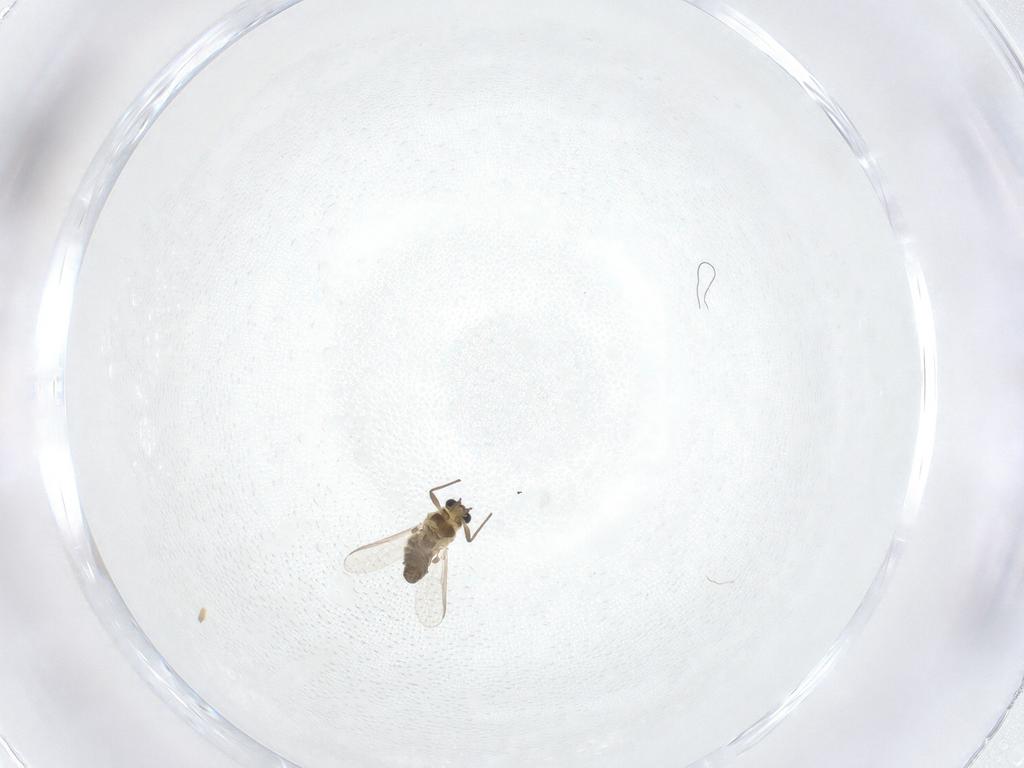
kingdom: Animalia
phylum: Arthropoda
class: Insecta
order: Diptera
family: Chironomidae
